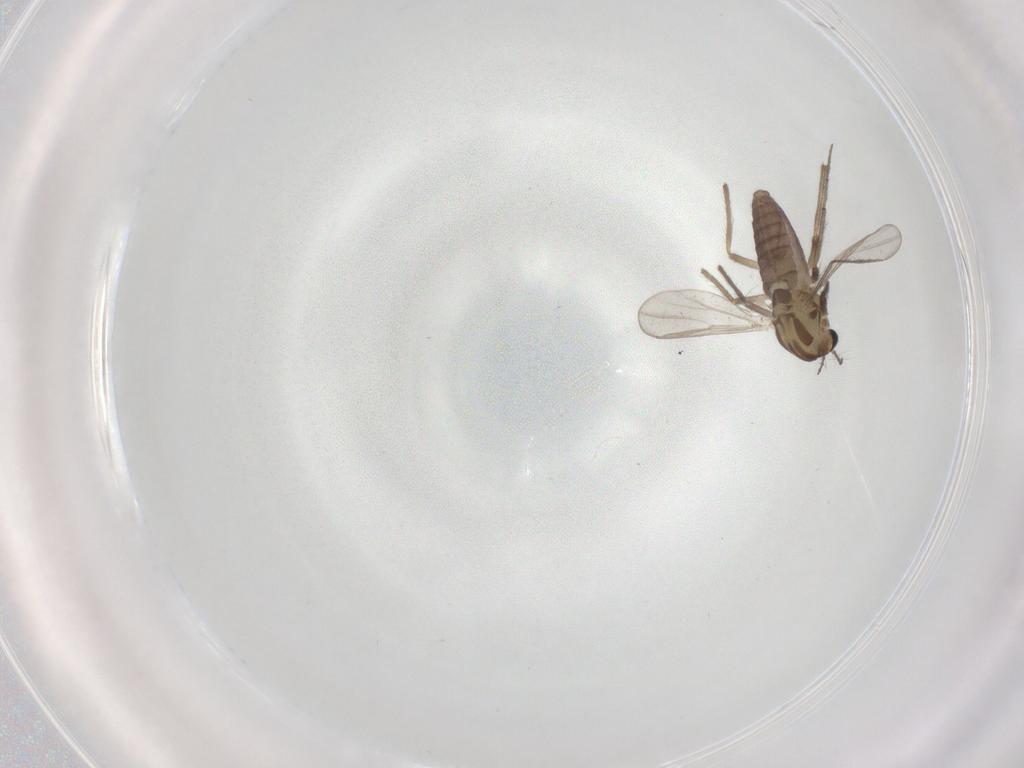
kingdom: Animalia
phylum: Arthropoda
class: Insecta
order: Diptera
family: Chironomidae
